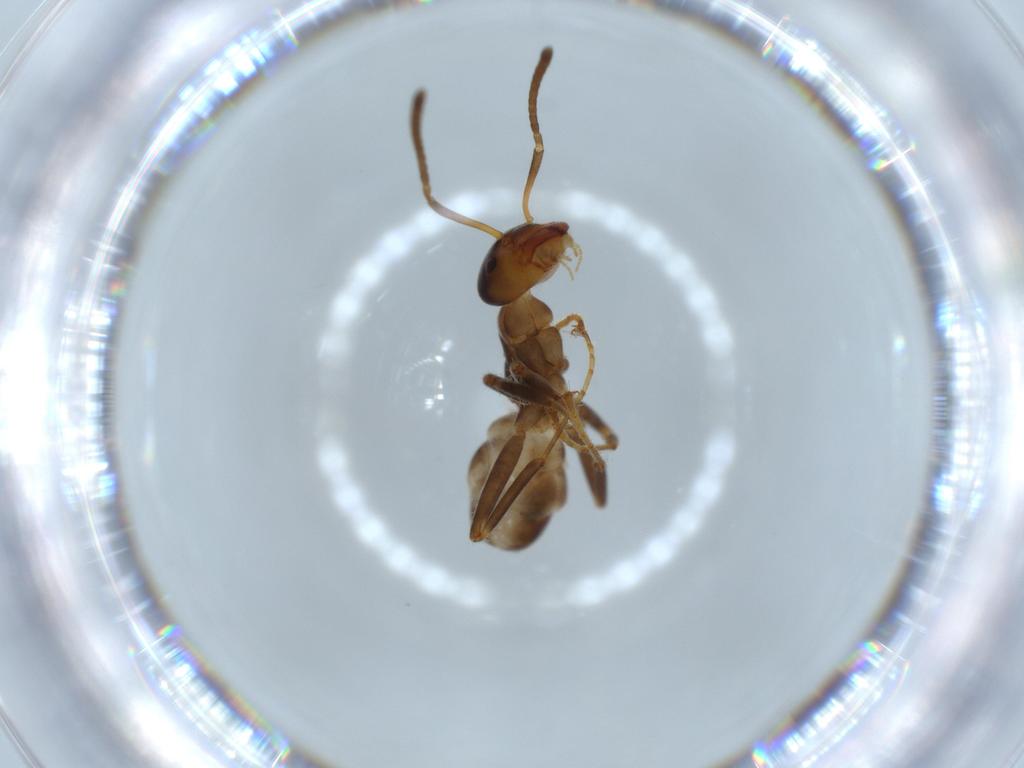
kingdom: Animalia
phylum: Arthropoda
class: Insecta
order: Hymenoptera
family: Formicidae
